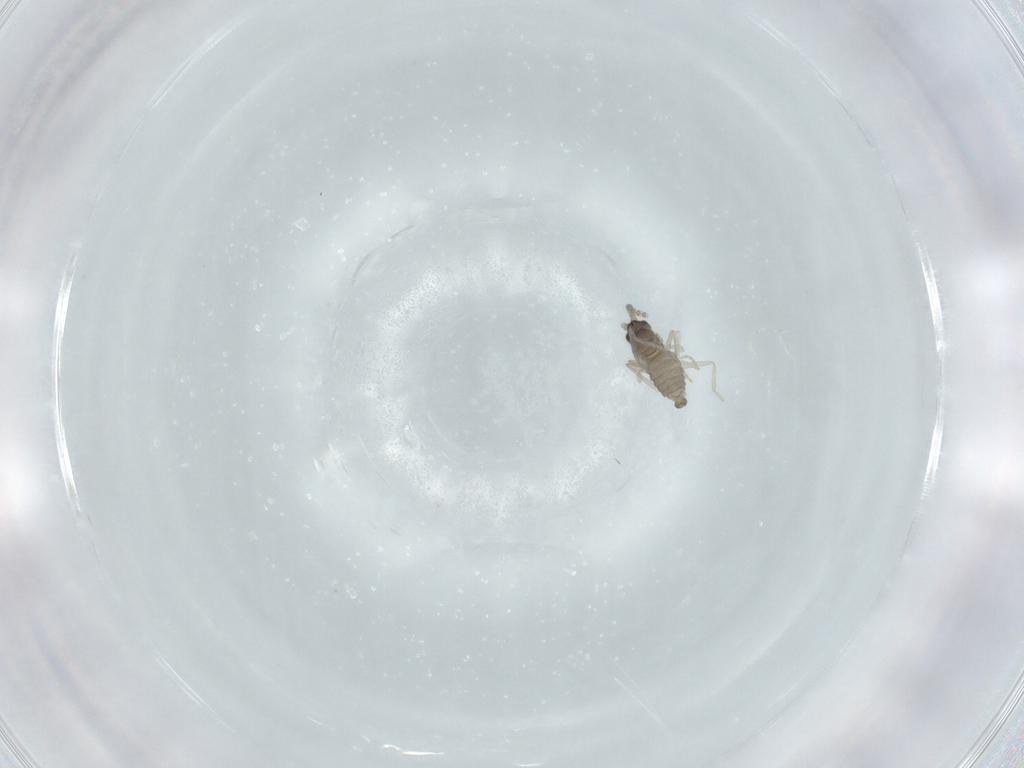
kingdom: Animalia
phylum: Arthropoda
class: Insecta
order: Diptera
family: Cecidomyiidae
